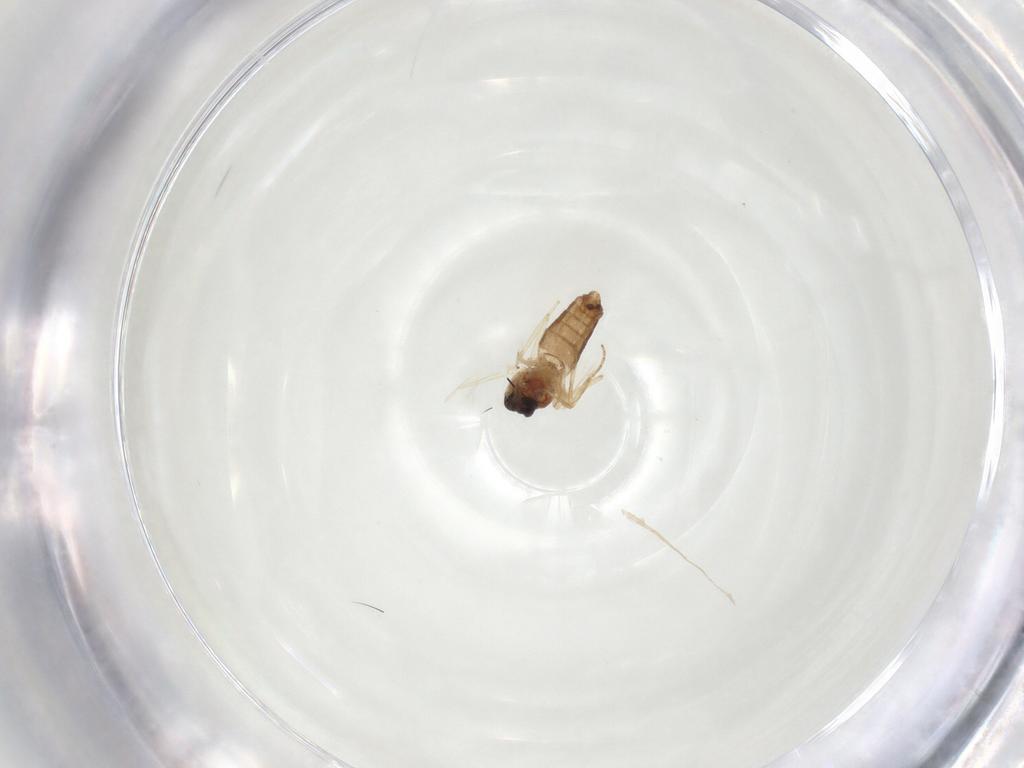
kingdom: Animalia
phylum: Arthropoda
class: Insecta
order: Diptera
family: Ceratopogonidae
